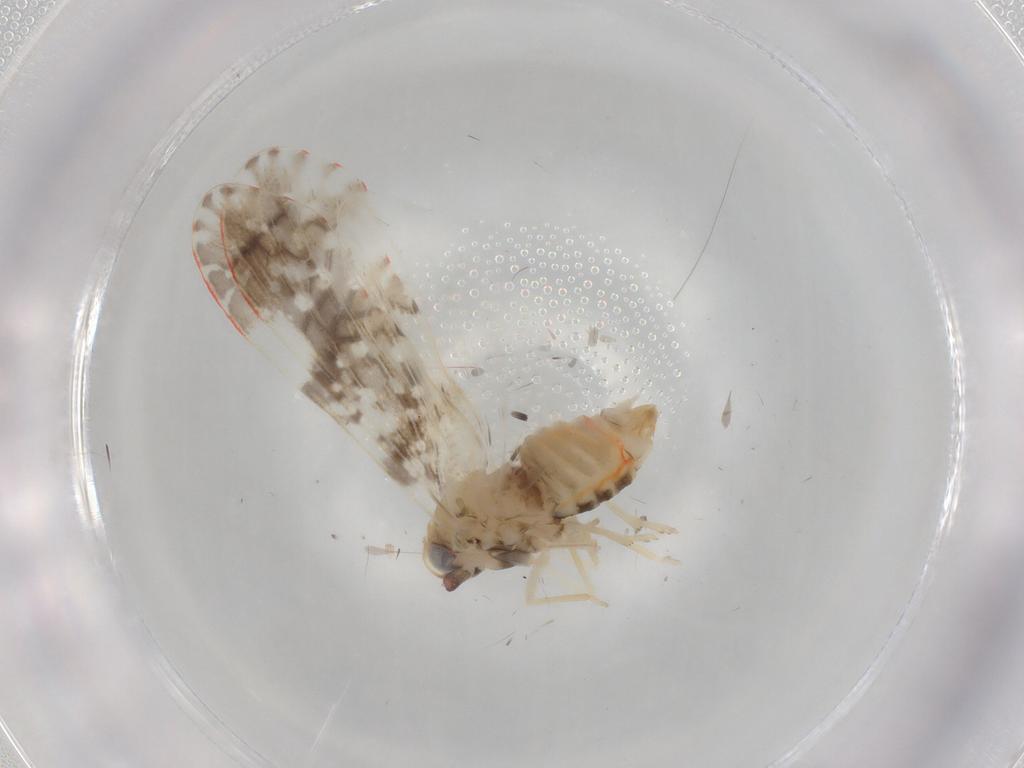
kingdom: Animalia
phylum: Arthropoda
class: Insecta
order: Hemiptera
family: Derbidae
